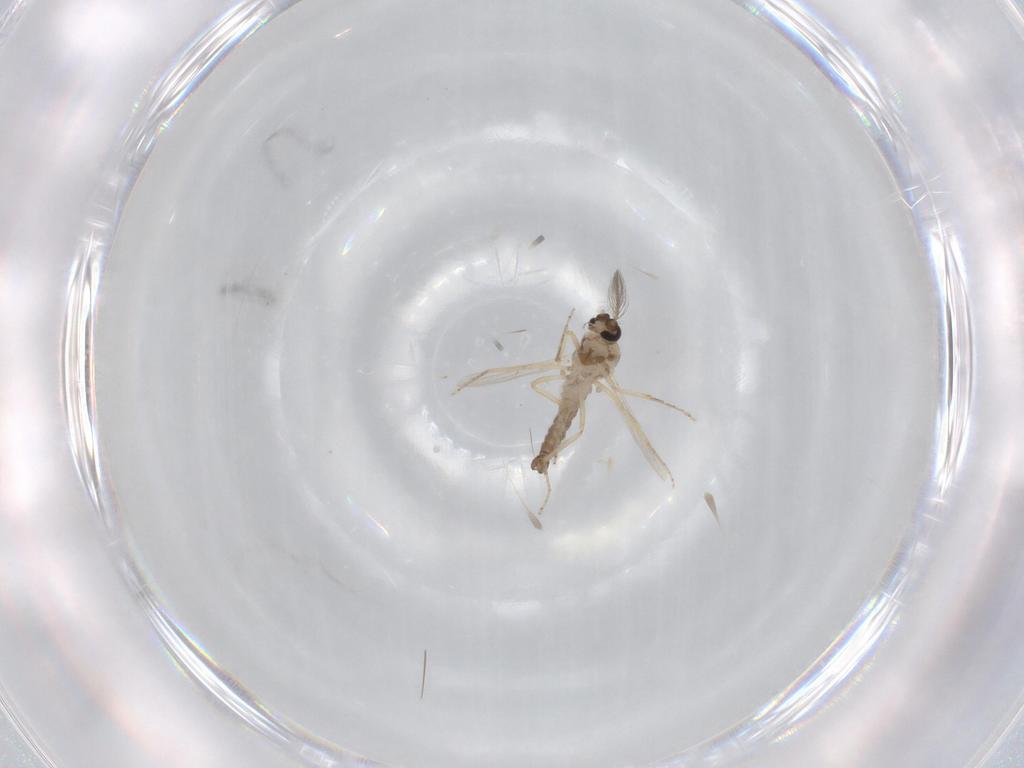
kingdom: Animalia
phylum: Arthropoda
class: Insecta
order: Diptera
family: Ceratopogonidae
